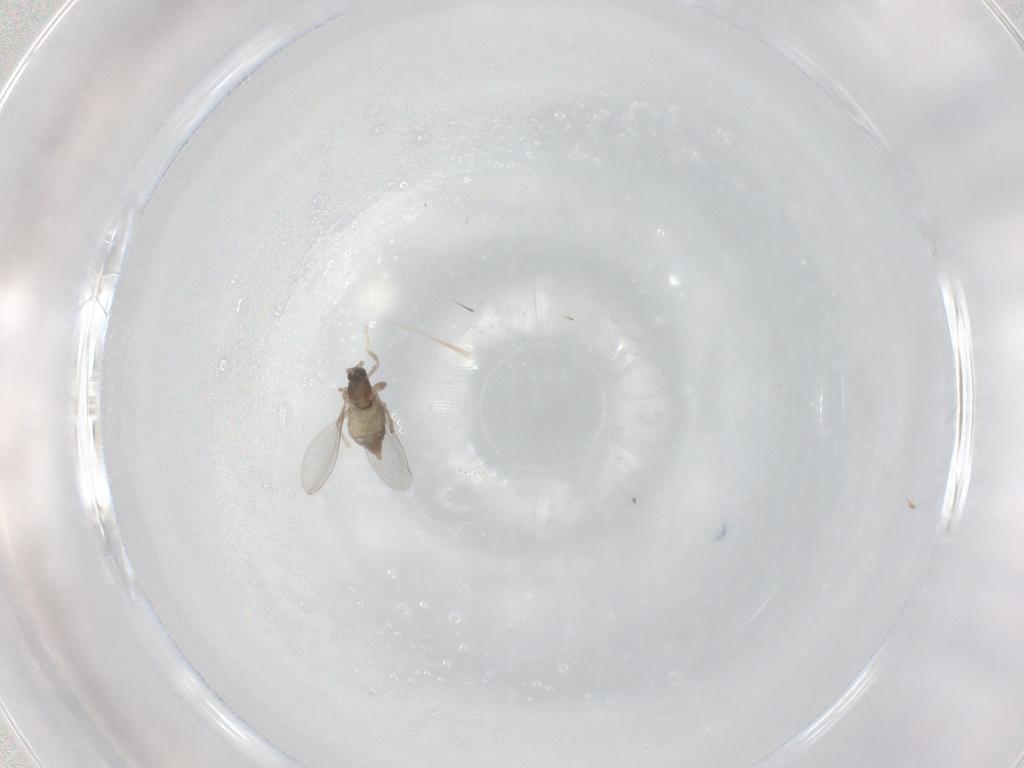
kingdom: Animalia
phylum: Arthropoda
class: Insecta
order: Diptera
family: Cecidomyiidae
